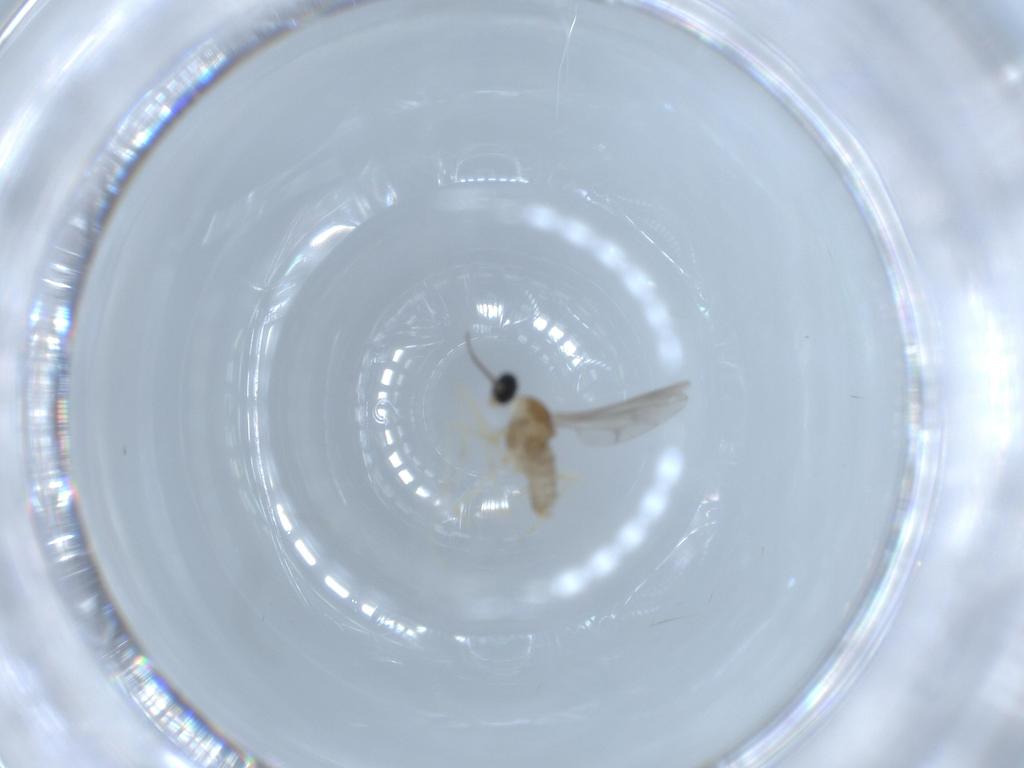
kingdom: Animalia
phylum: Arthropoda
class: Insecta
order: Diptera
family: Cecidomyiidae
